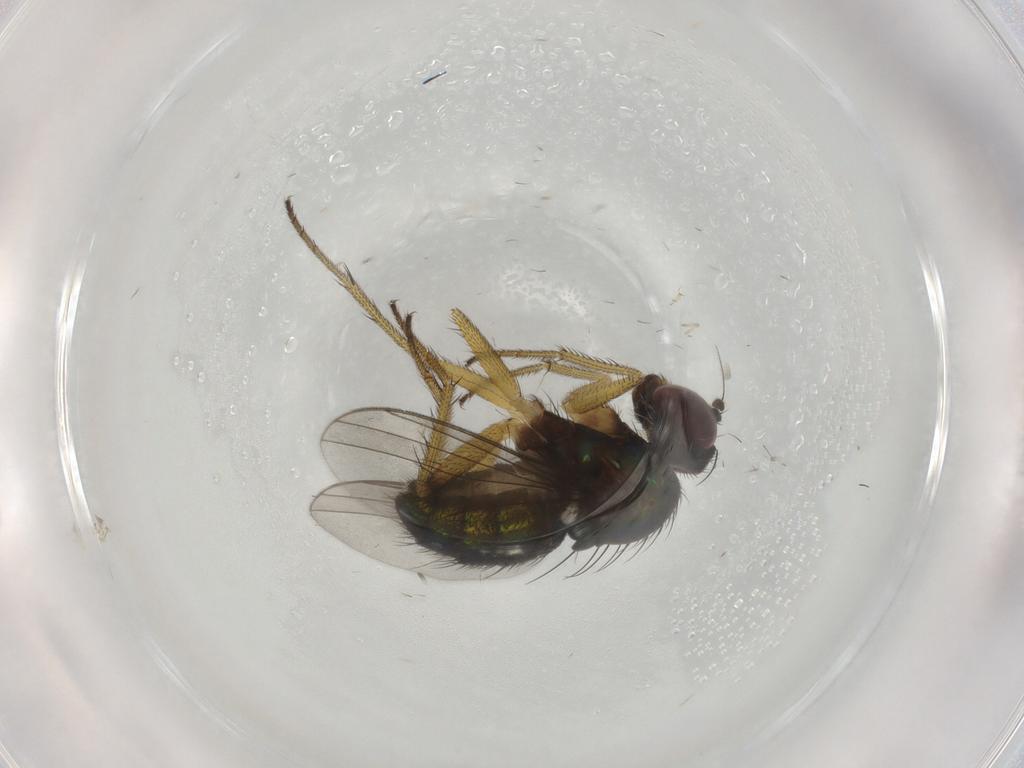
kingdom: Animalia
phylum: Arthropoda
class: Insecta
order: Diptera
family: Dolichopodidae
